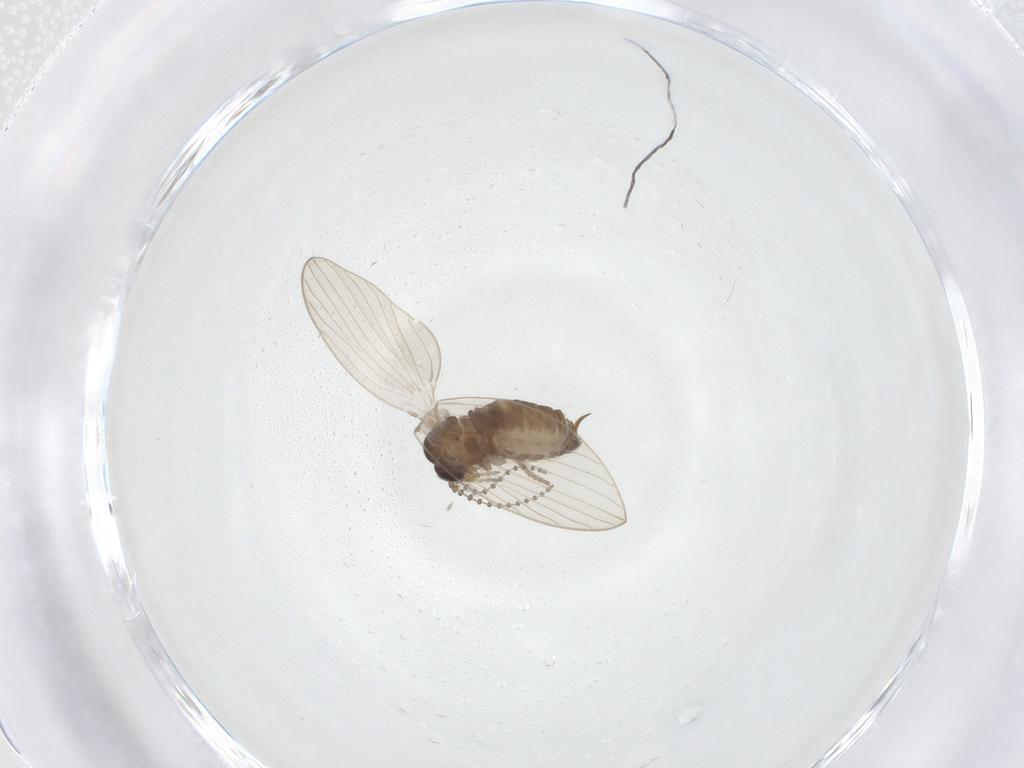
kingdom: Animalia
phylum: Arthropoda
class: Insecta
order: Diptera
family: Psychodidae
